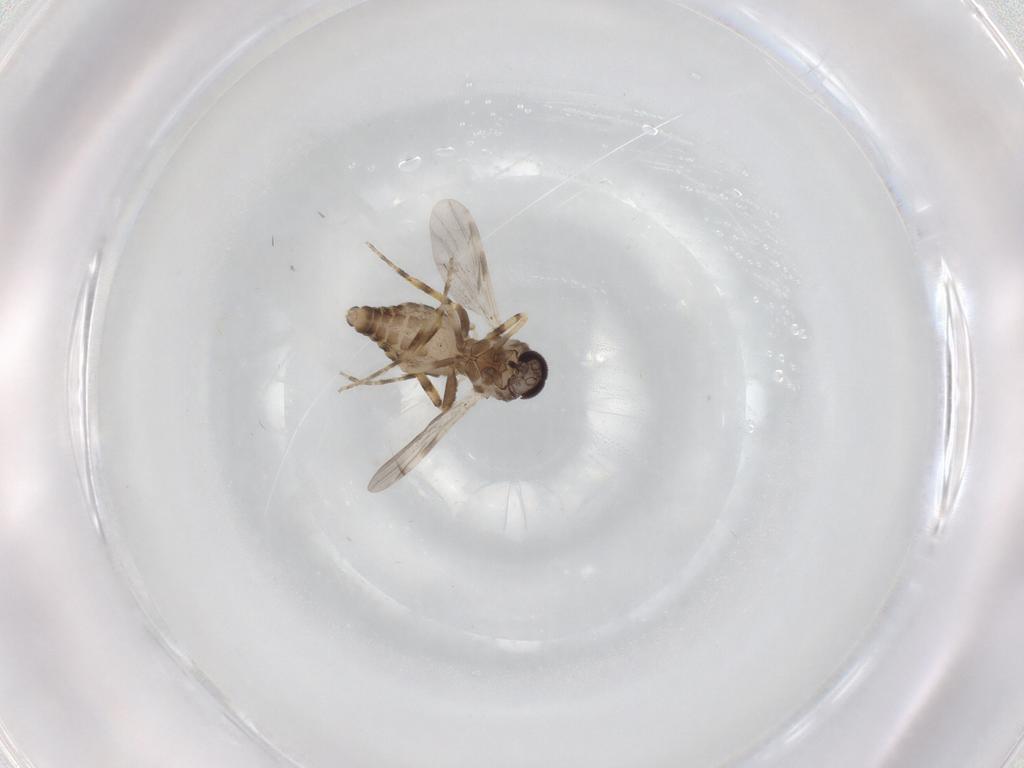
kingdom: Animalia
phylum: Arthropoda
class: Insecta
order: Diptera
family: Ceratopogonidae
